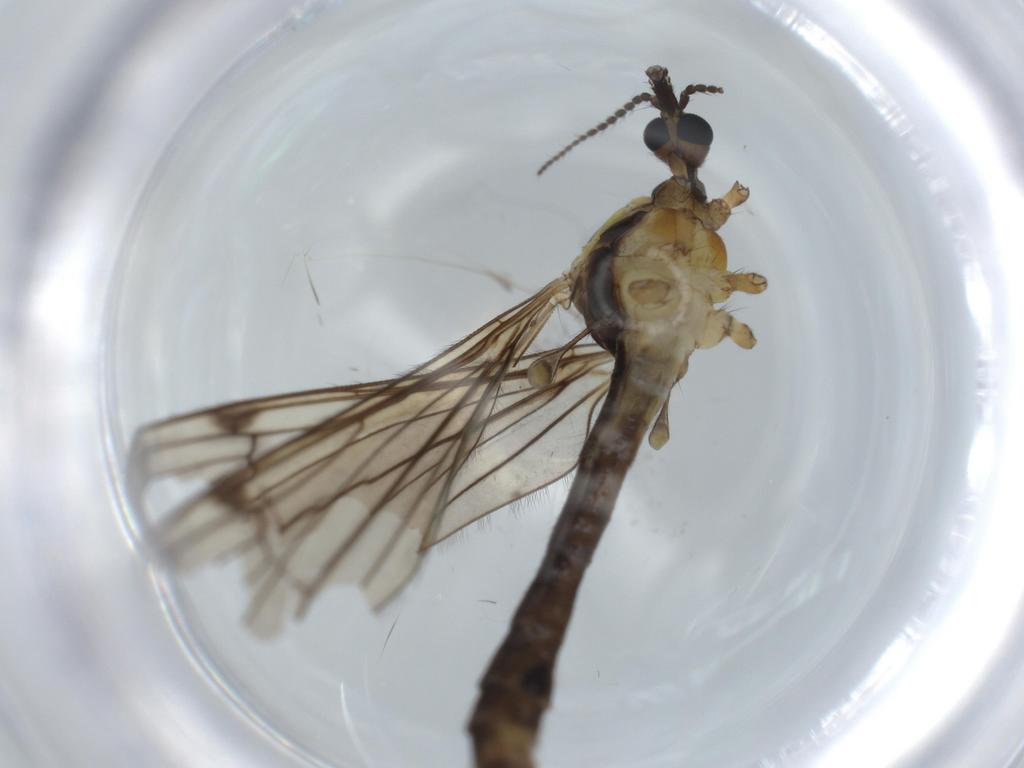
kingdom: Animalia
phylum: Arthropoda
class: Insecta
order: Diptera
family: Limoniidae
